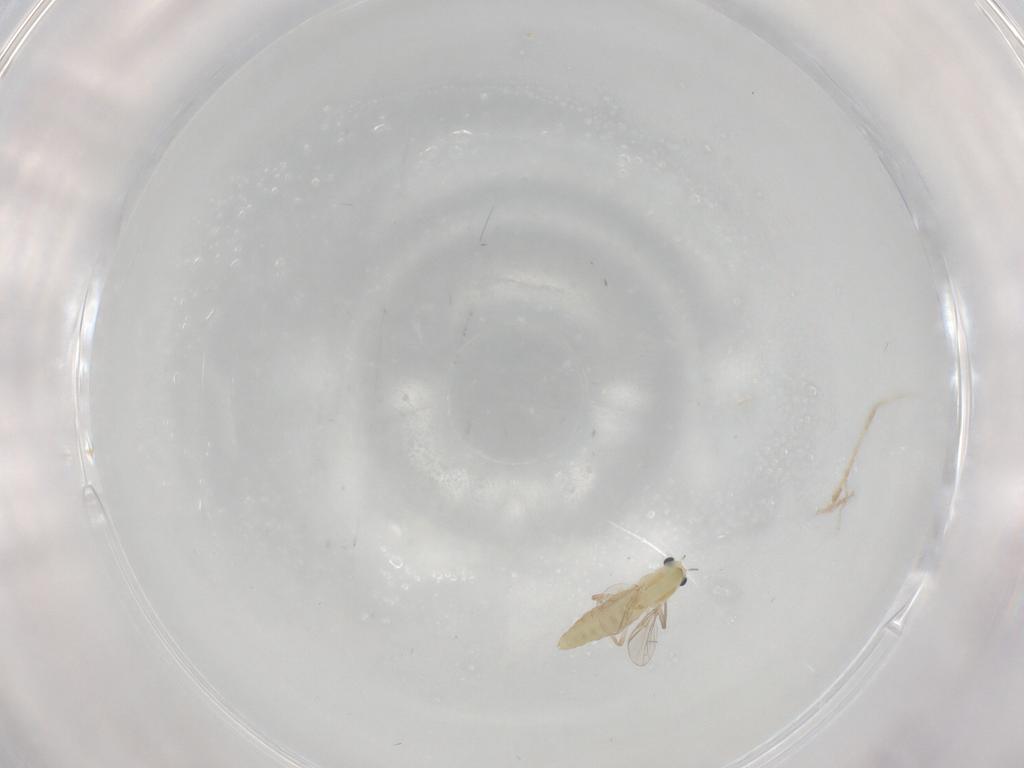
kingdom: Animalia
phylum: Arthropoda
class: Insecta
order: Diptera
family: Chironomidae
